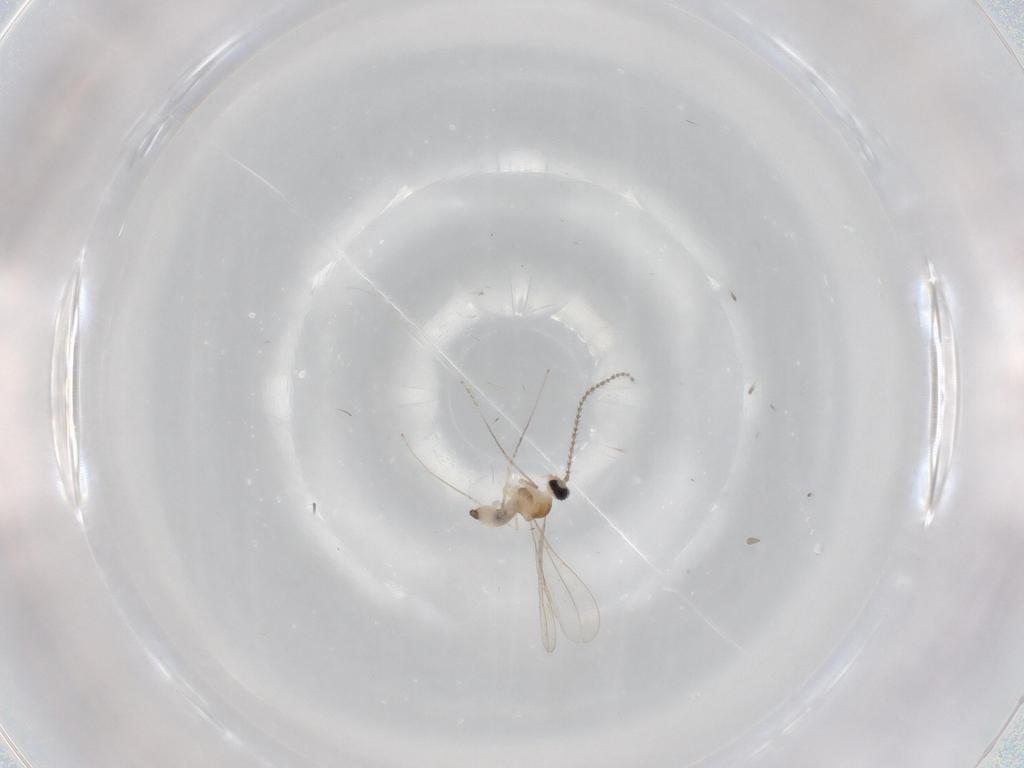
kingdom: Animalia
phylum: Arthropoda
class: Insecta
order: Diptera
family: Cecidomyiidae
